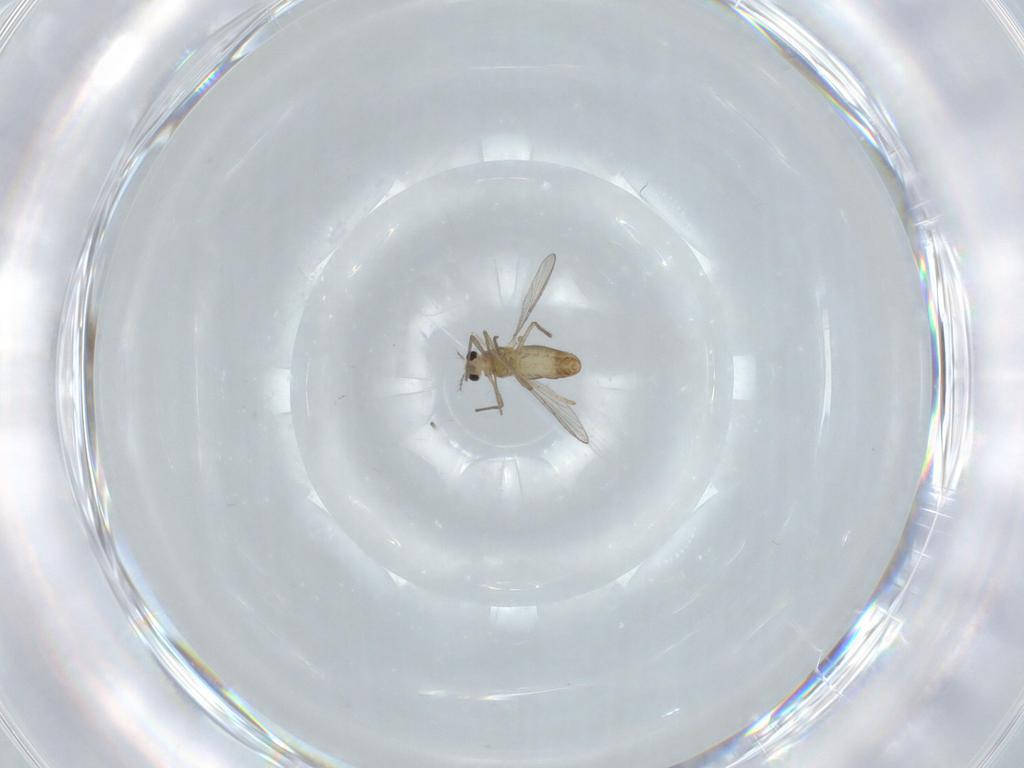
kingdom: Animalia
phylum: Arthropoda
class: Insecta
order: Diptera
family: Chironomidae
